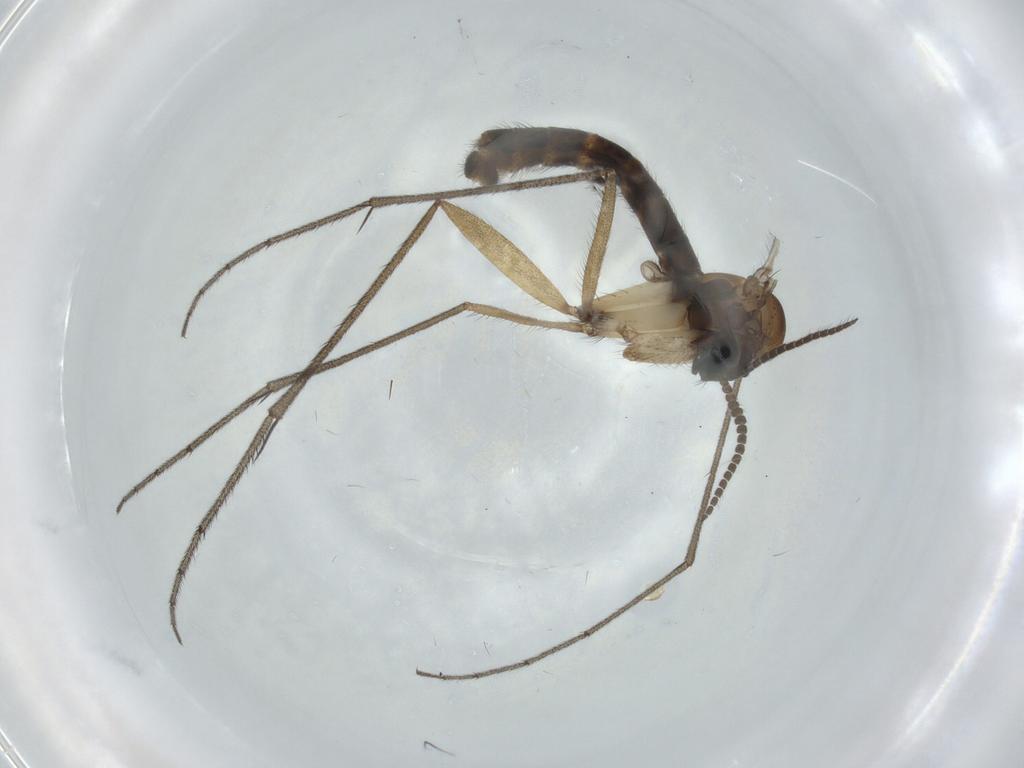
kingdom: Animalia
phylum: Arthropoda
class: Insecta
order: Diptera
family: Ditomyiidae
